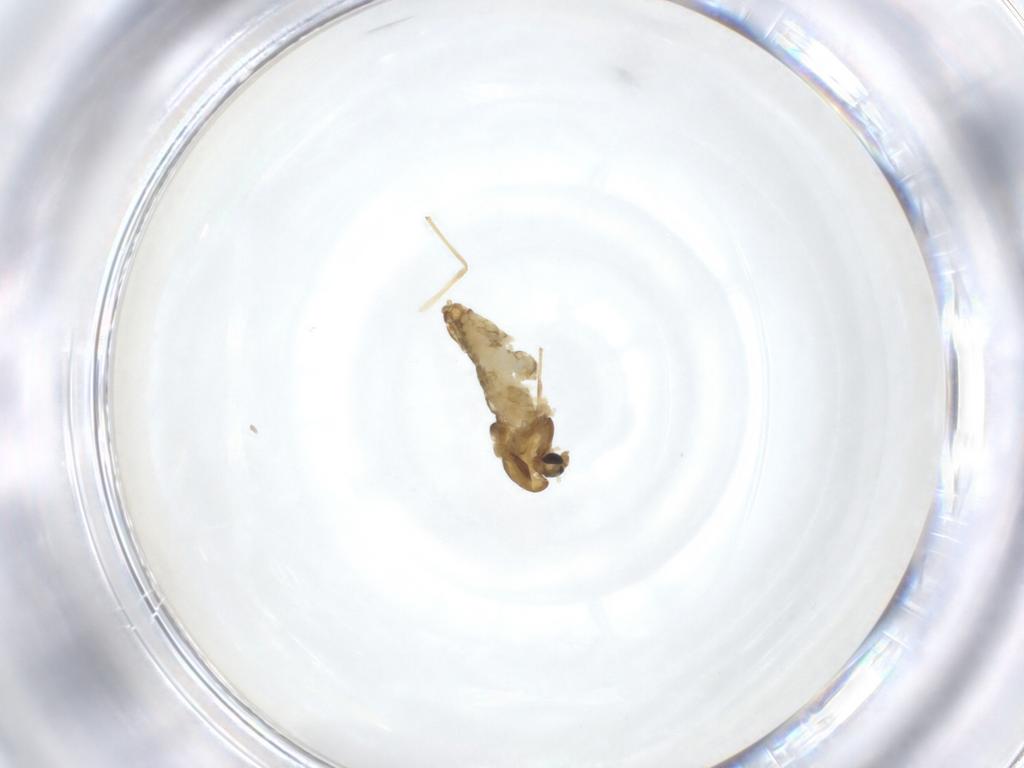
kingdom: Animalia
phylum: Arthropoda
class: Insecta
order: Diptera
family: Chironomidae
